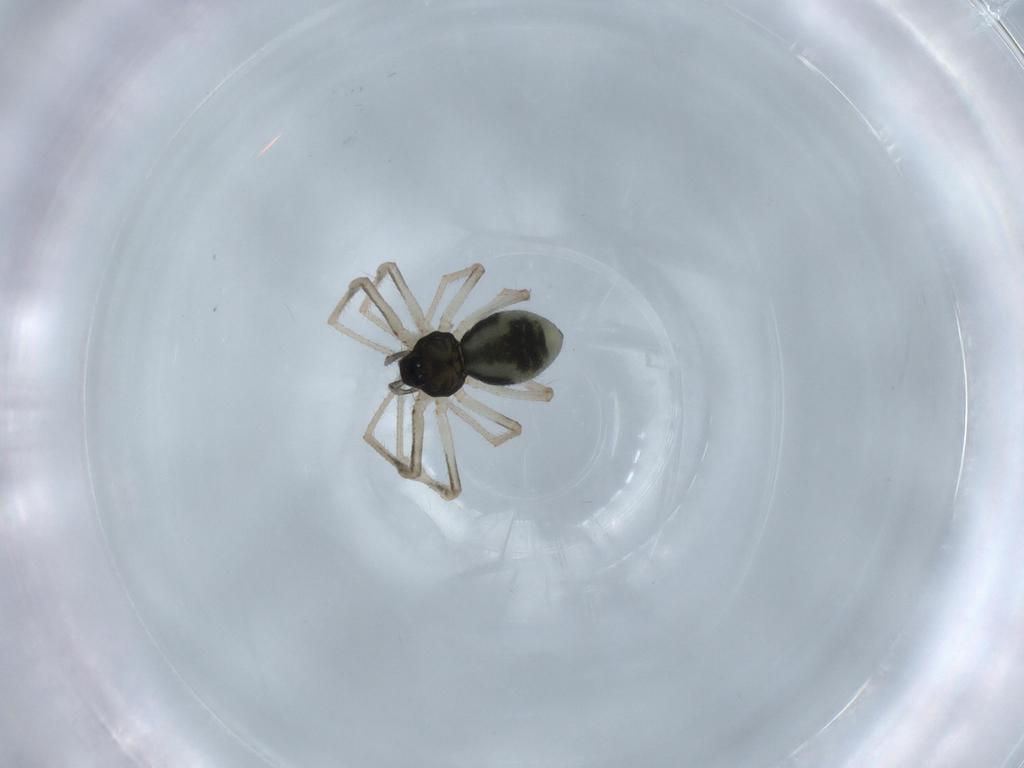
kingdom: Animalia
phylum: Arthropoda
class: Arachnida
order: Araneae
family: Linyphiidae
